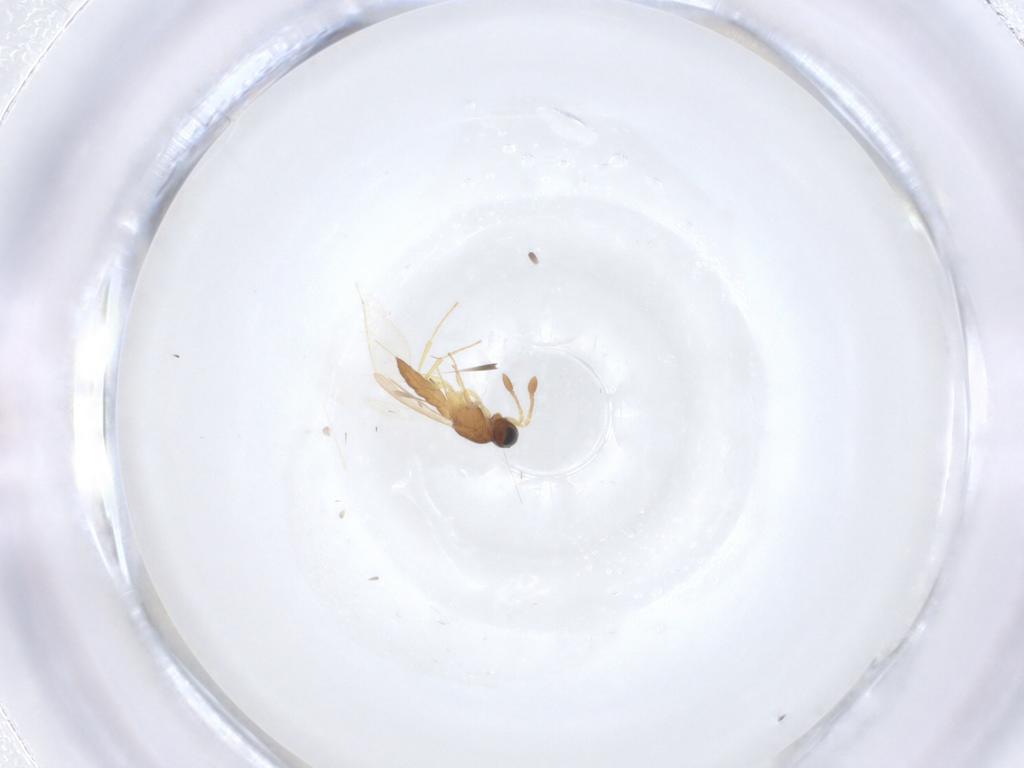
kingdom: Animalia
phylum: Arthropoda
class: Insecta
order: Hymenoptera
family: Scelionidae
